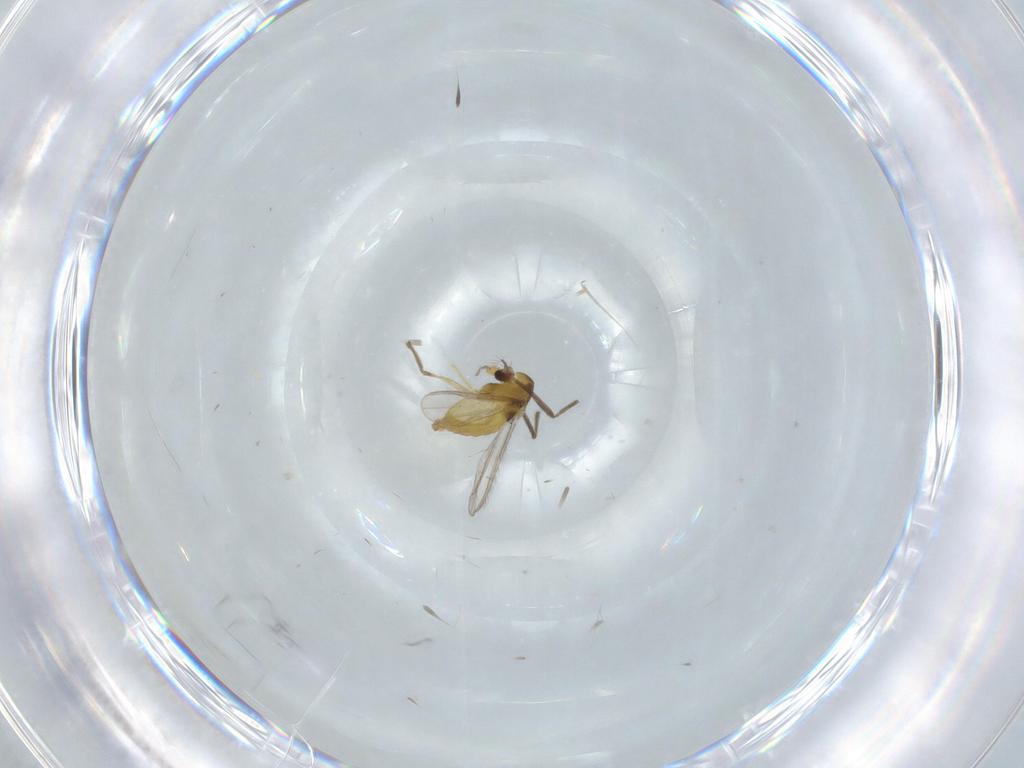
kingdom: Animalia
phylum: Arthropoda
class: Insecta
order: Diptera
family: Chironomidae
